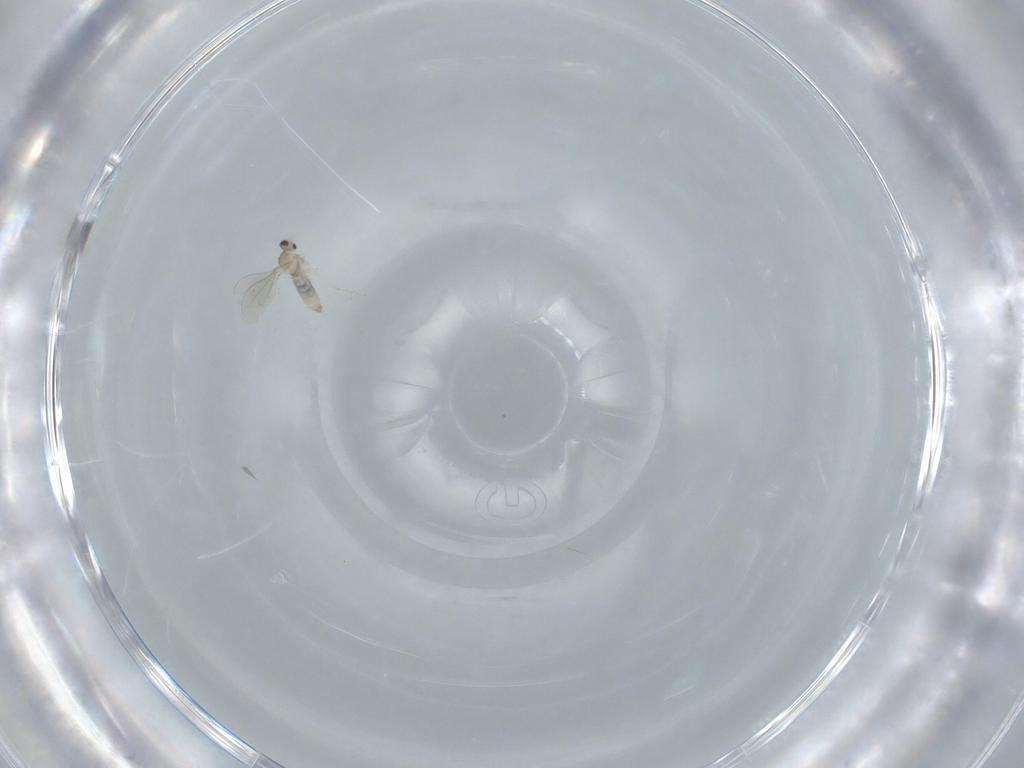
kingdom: Animalia
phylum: Arthropoda
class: Insecta
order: Diptera
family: Cecidomyiidae
